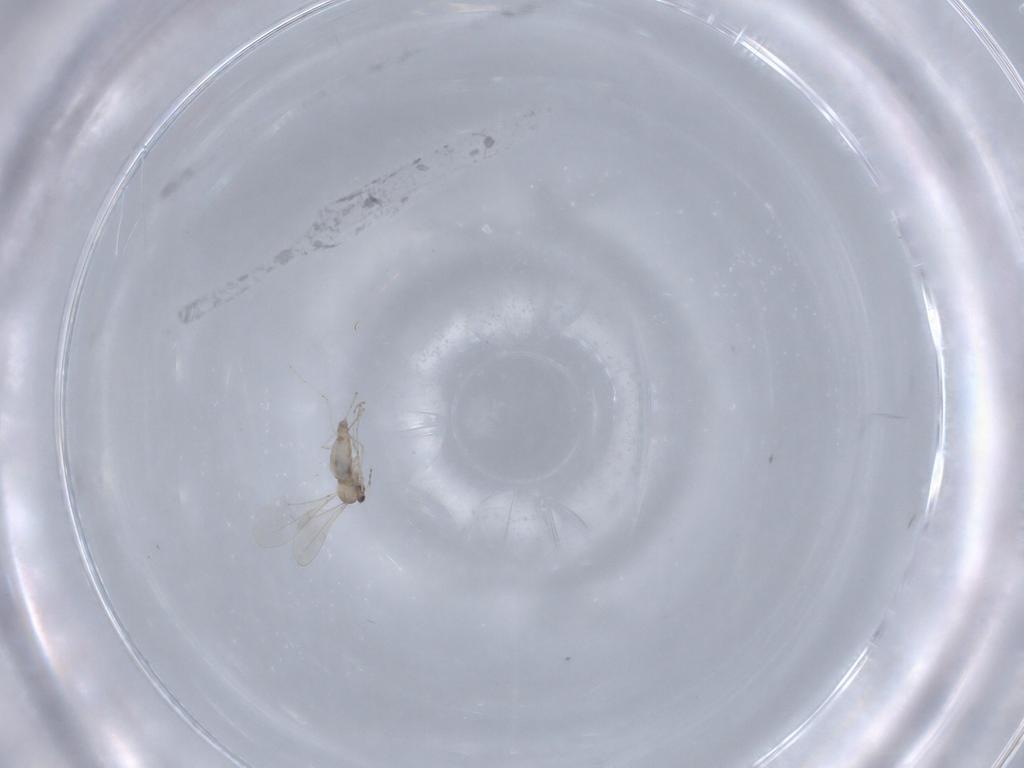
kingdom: Animalia
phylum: Arthropoda
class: Insecta
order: Diptera
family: Cecidomyiidae
